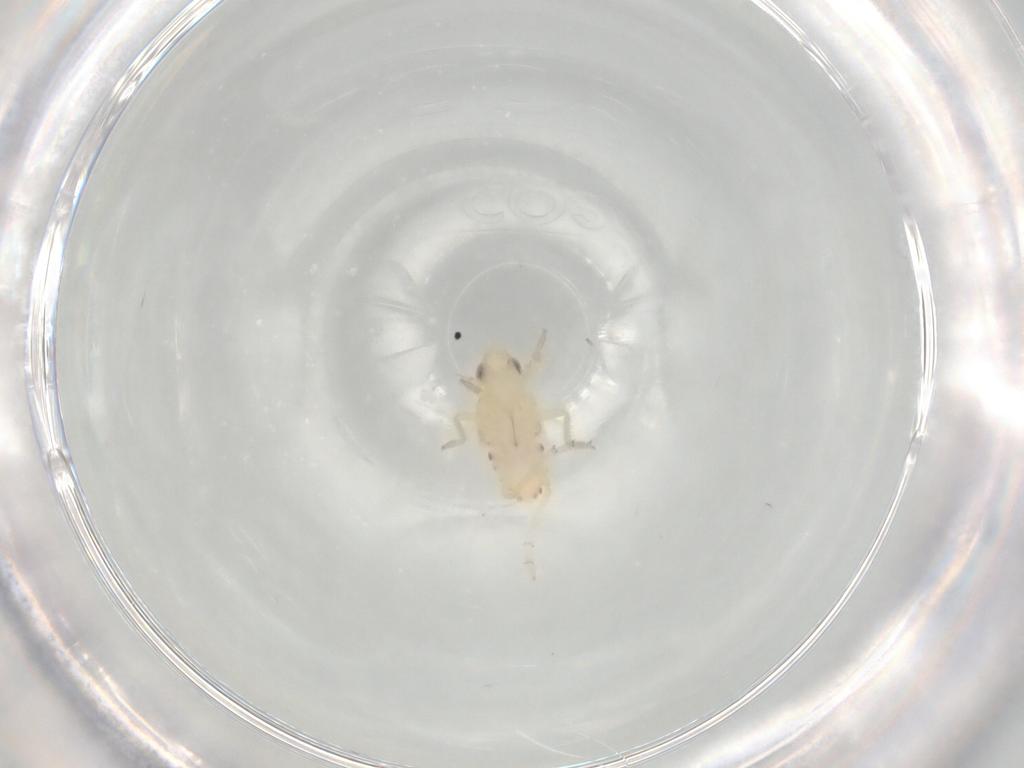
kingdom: Animalia
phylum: Arthropoda
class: Insecta
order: Hemiptera
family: Tropiduchidae
